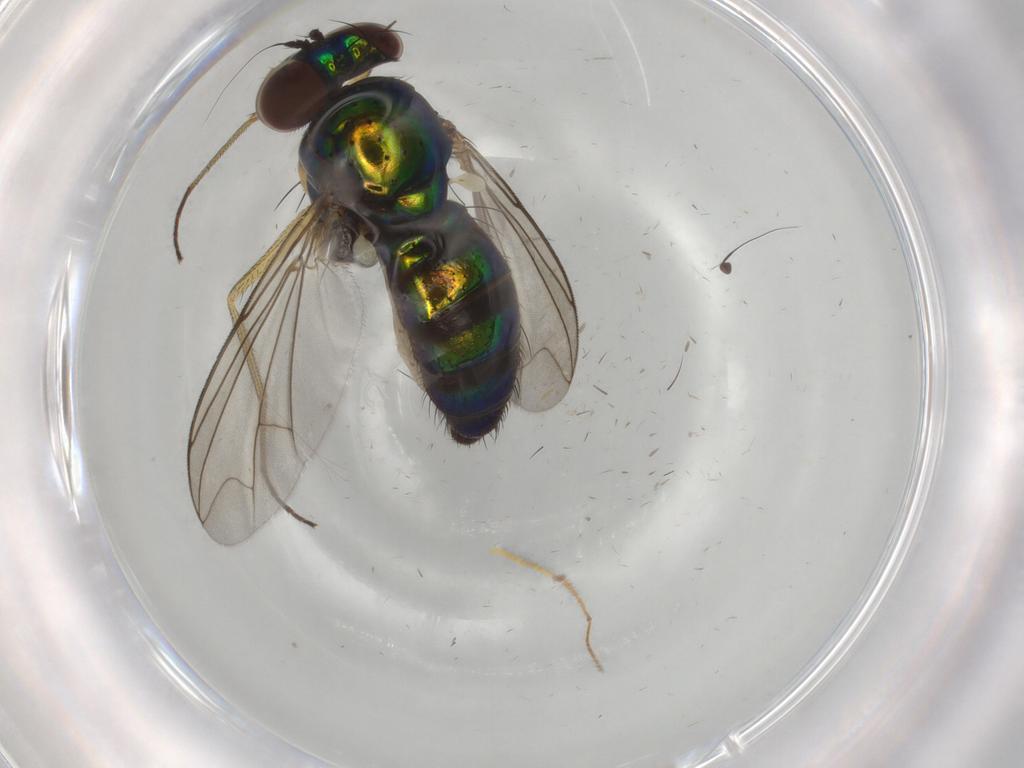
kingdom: Animalia
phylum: Arthropoda
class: Insecta
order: Diptera
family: Dolichopodidae
